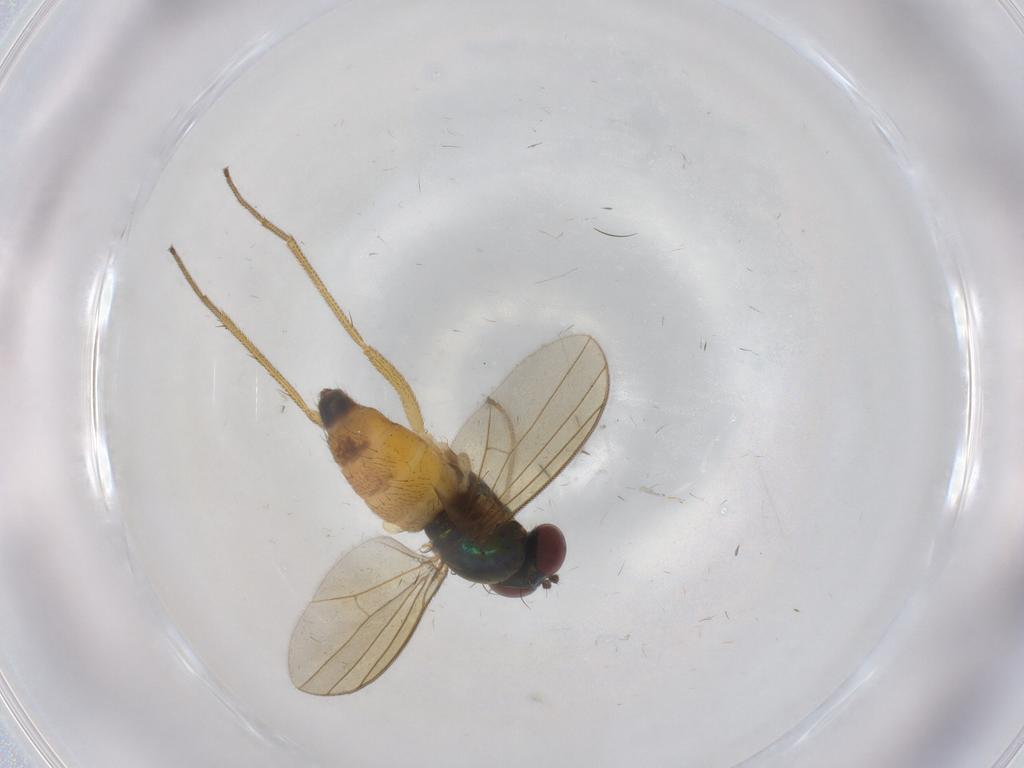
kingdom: Animalia
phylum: Arthropoda
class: Insecta
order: Diptera
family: Dolichopodidae
